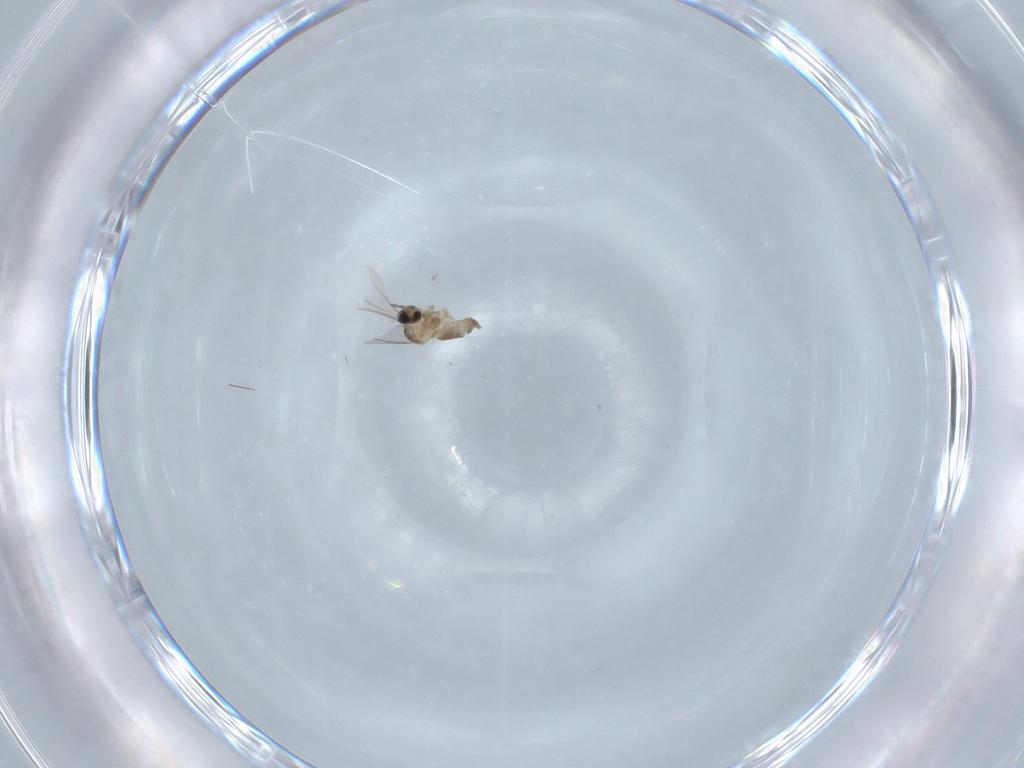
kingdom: Animalia
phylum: Arthropoda
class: Insecta
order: Diptera
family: Cecidomyiidae
